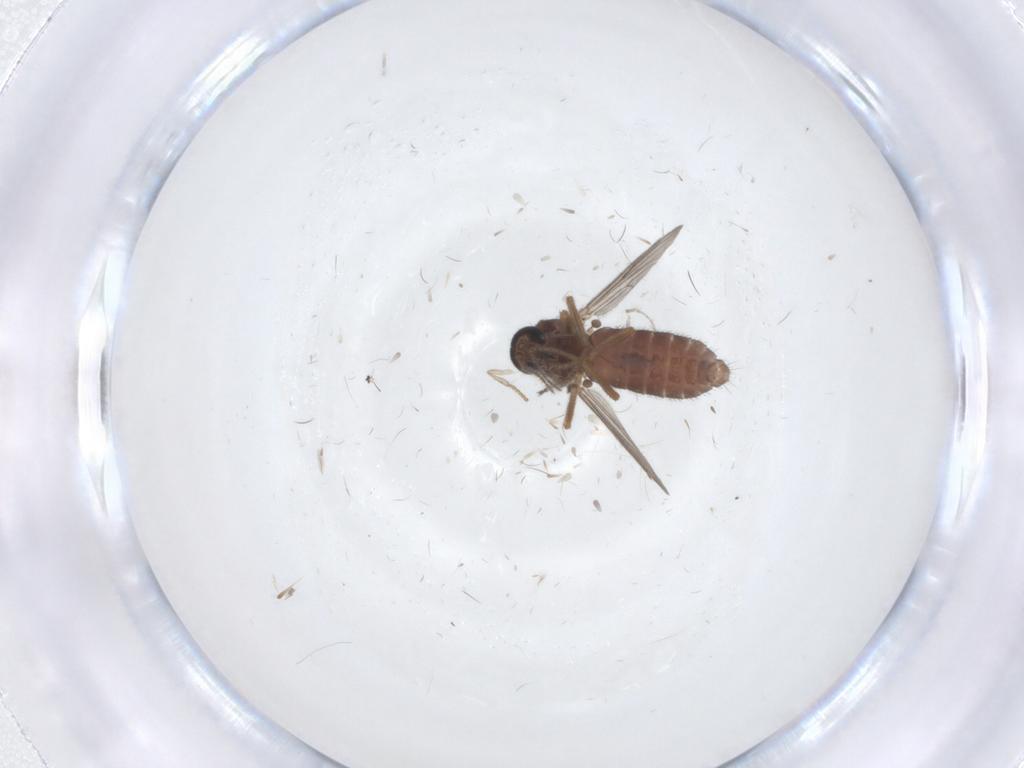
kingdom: Animalia
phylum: Arthropoda
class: Insecta
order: Diptera
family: Ceratopogonidae
